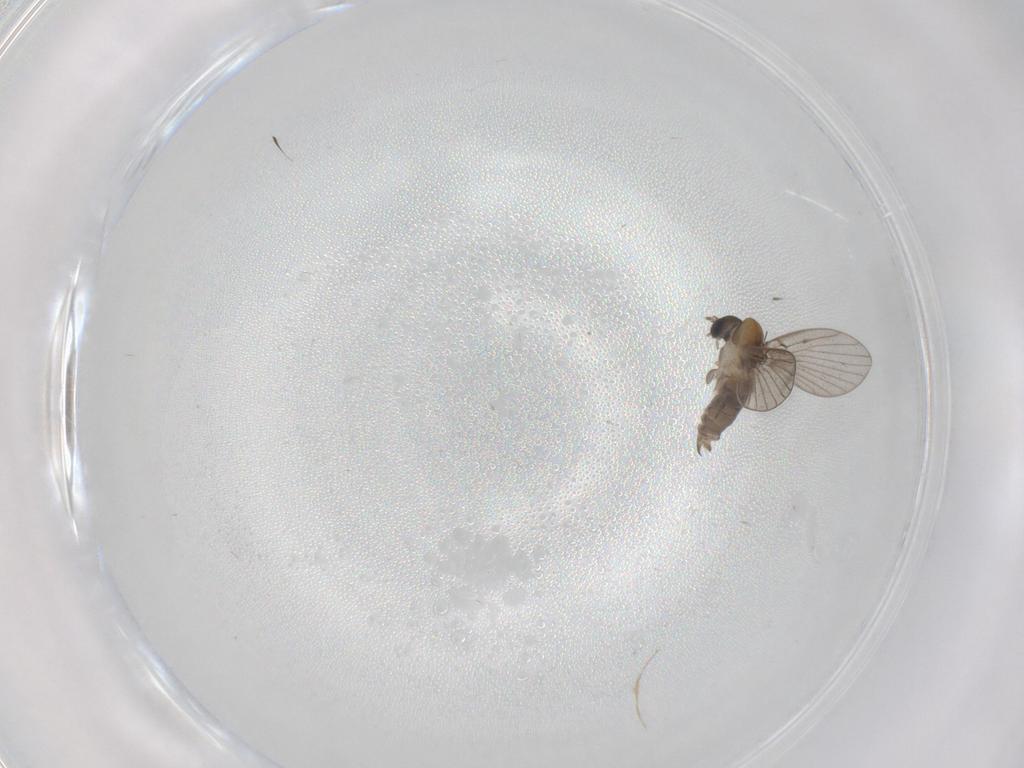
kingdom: Animalia
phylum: Arthropoda
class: Insecta
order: Diptera
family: Psychodidae
